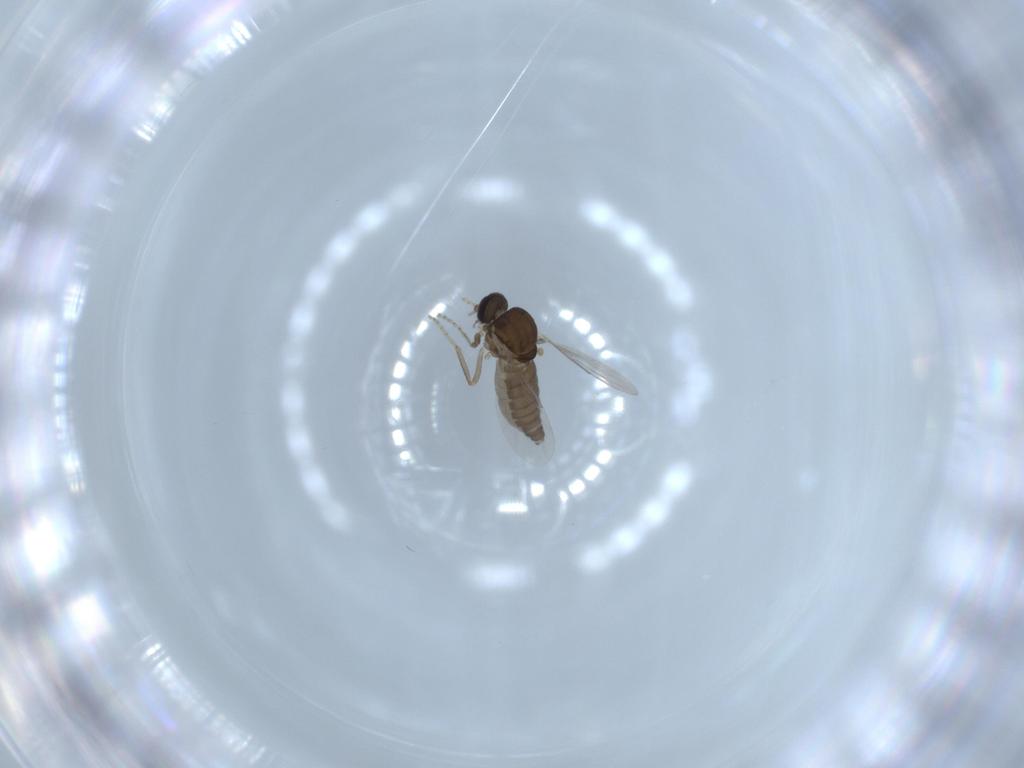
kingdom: Animalia
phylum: Arthropoda
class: Insecta
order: Diptera
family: Ceratopogonidae
